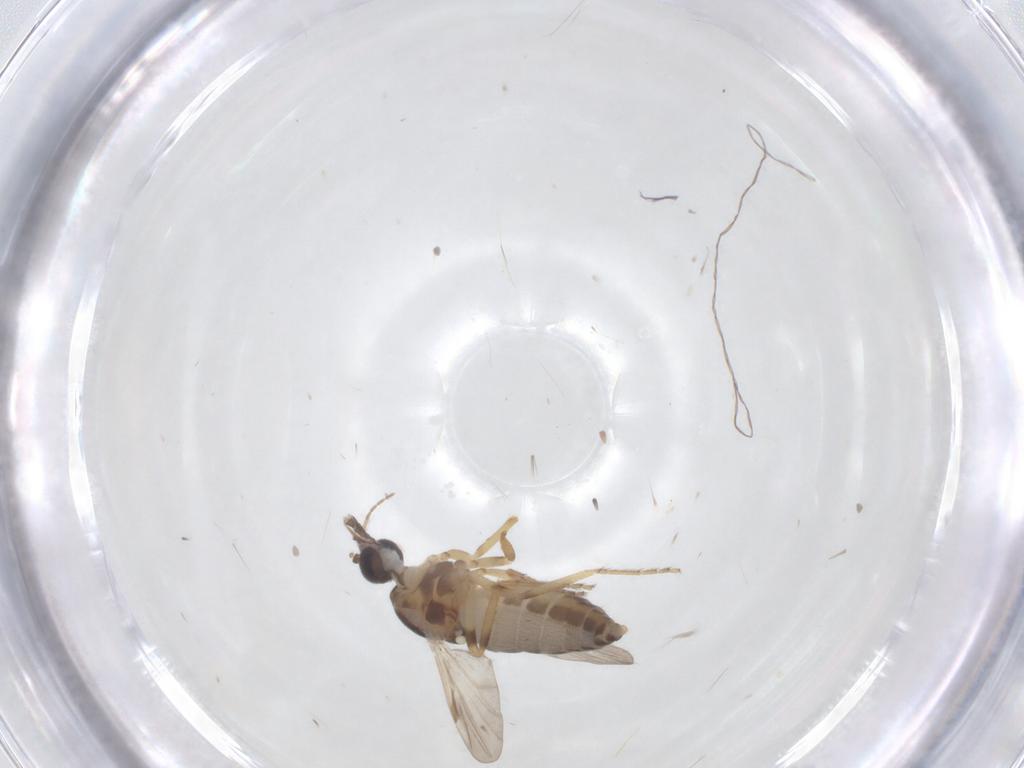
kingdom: Animalia
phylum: Arthropoda
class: Insecta
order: Diptera
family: Ceratopogonidae
